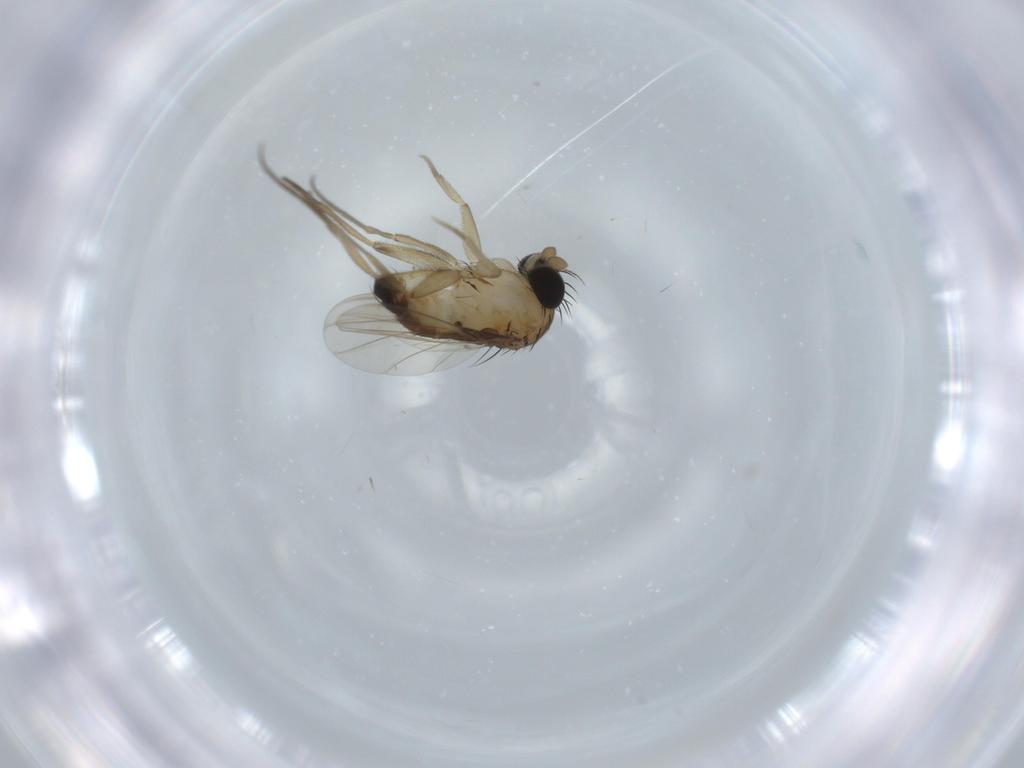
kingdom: Animalia
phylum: Arthropoda
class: Insecta
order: Diptera
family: Phoridae
